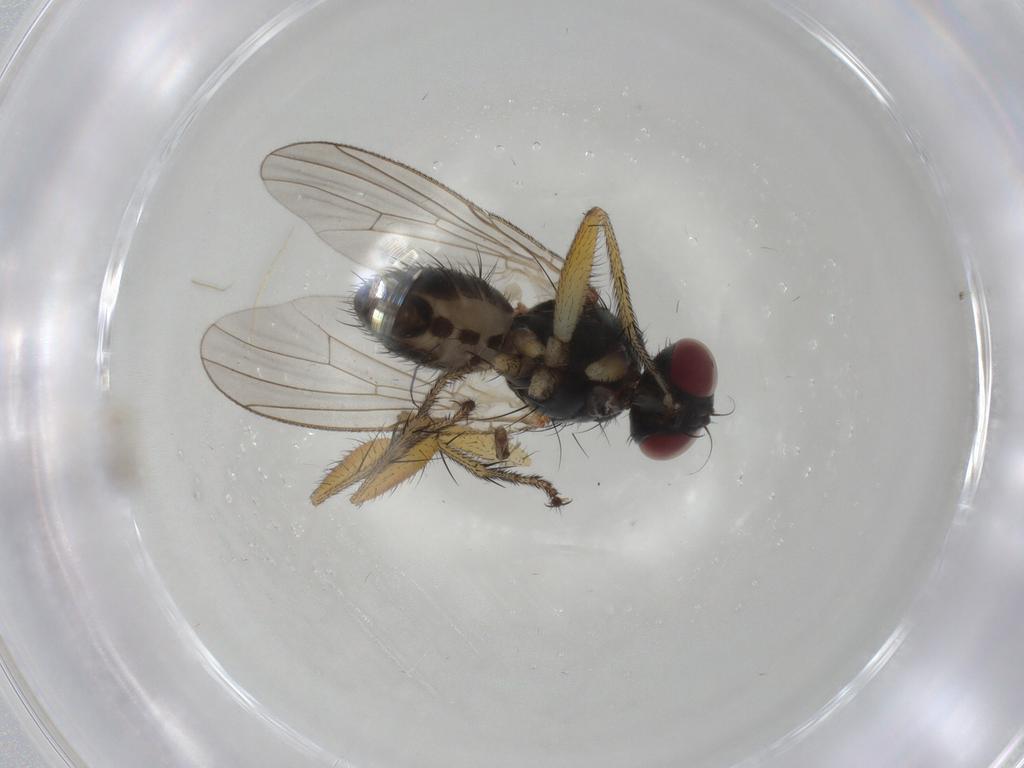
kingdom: Animalia
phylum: Arthropoda
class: Insecta
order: Diptera
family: Muscidae
